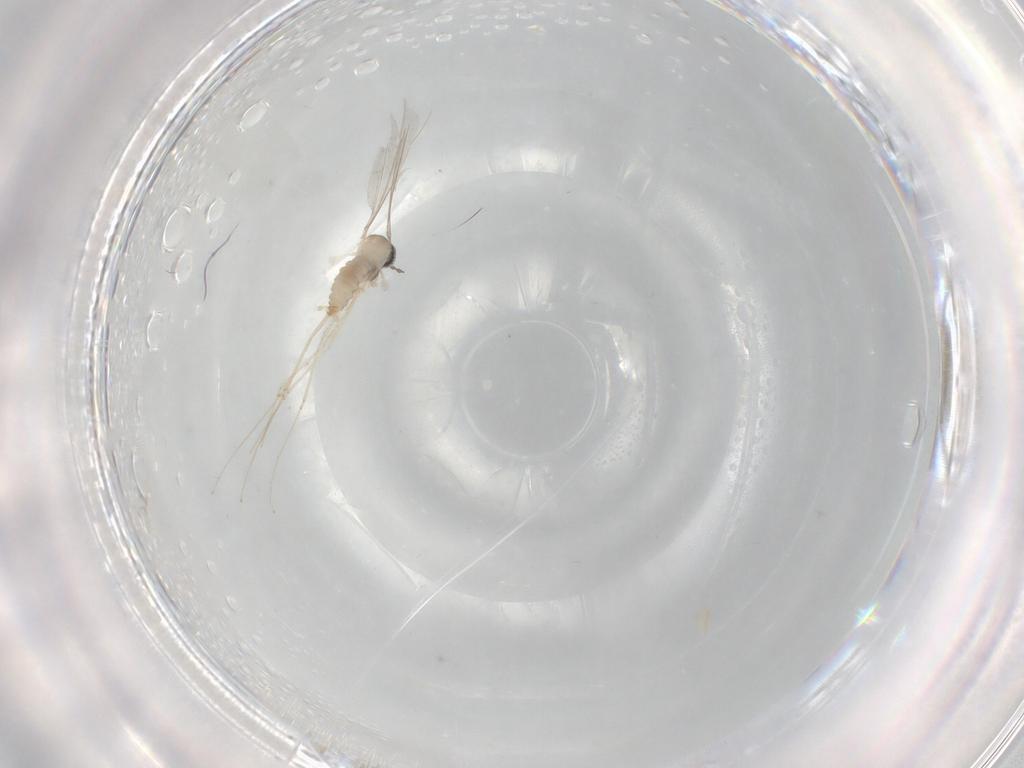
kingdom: Animalia
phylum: Arthropoda
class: Insecta
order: Diptera
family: Cecidomyiidae
